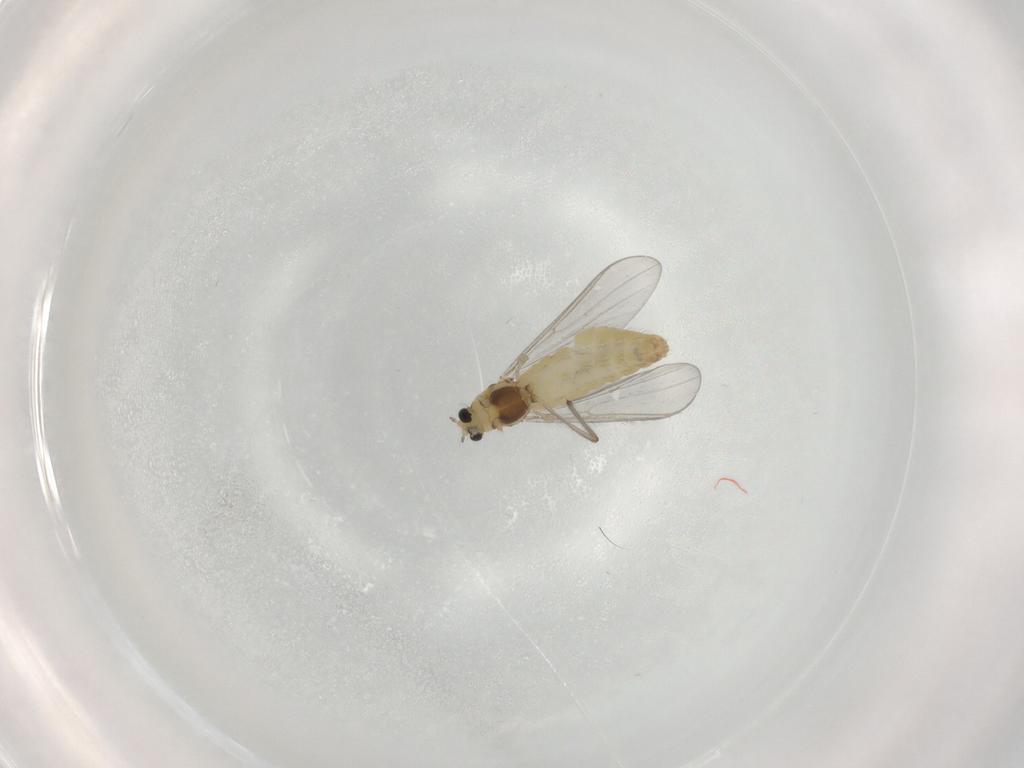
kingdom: Animalia
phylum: Arthropoda
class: Insecta
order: Diptera
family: Chironomidae
